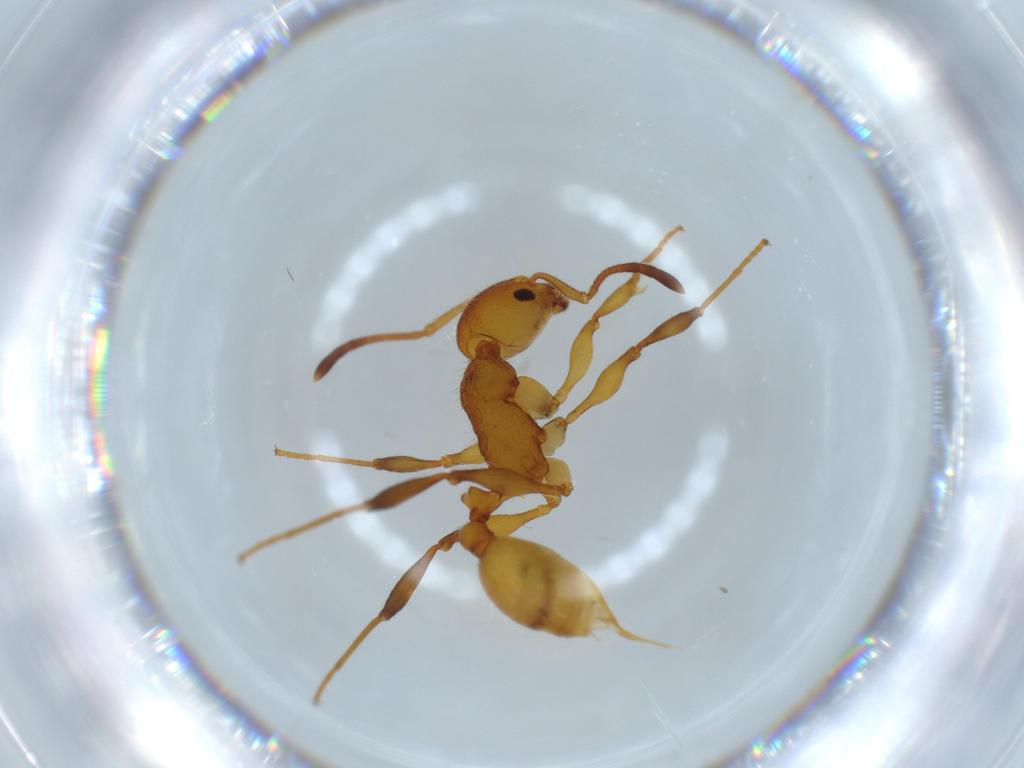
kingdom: Animalia
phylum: Arthropoda
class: Insecta
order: Hymenoptera
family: Formicidae
